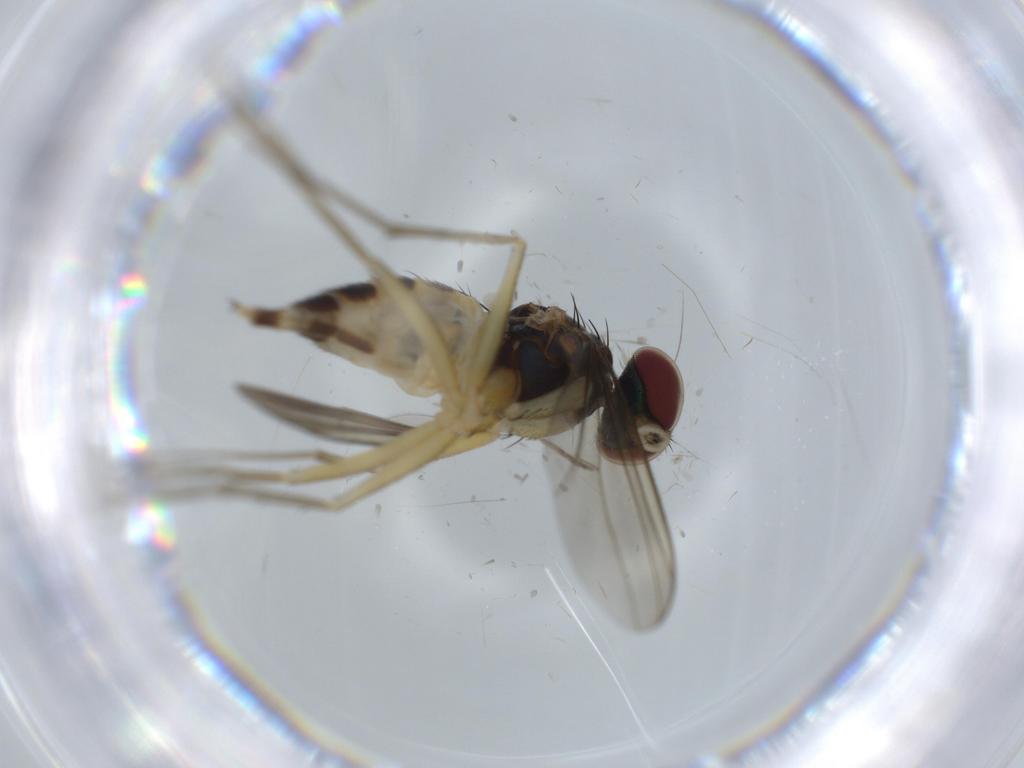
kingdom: Animalia
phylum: Arthropoda
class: Insecta
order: Diptera
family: Dolichopodidae
